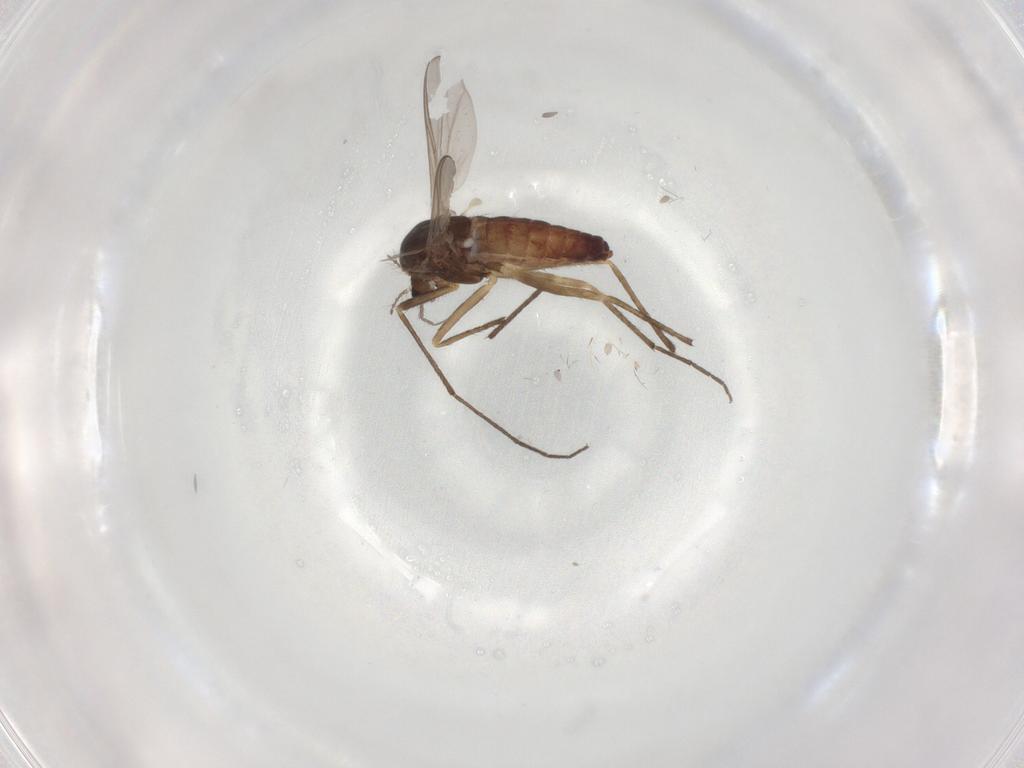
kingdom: Animalia
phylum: Arthropoda
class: Insecta
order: Diptera
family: Chironomidae
